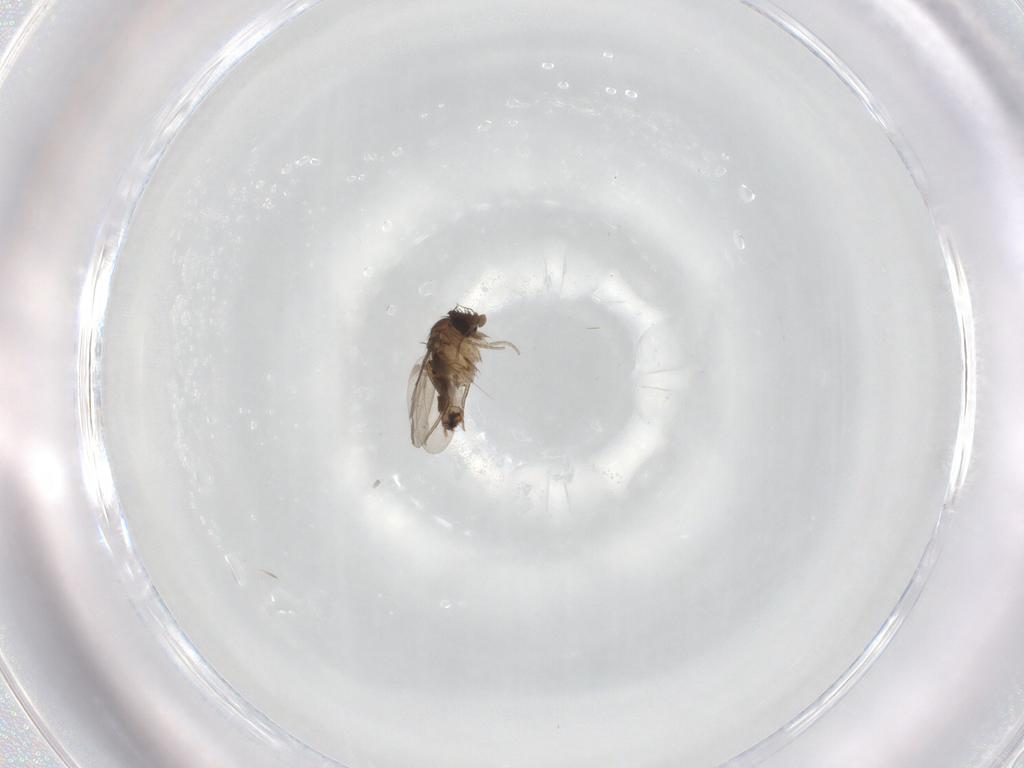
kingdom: Animalia
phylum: Arthropoda
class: Insecta
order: Diptera
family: Phoridae
